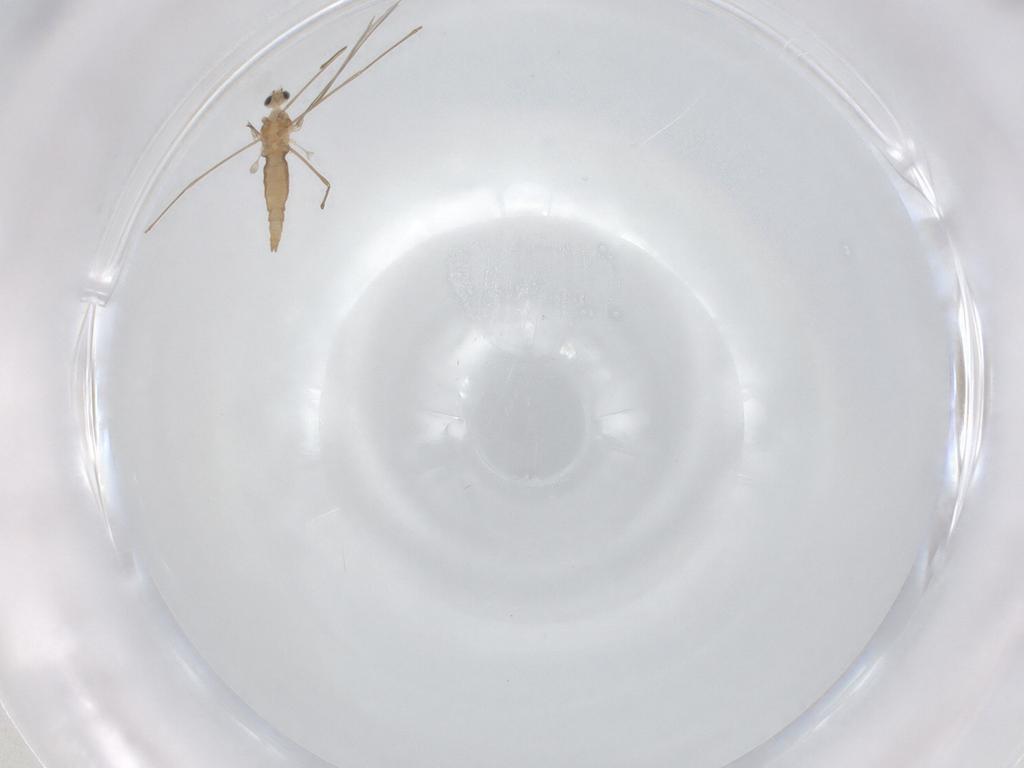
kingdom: Animalia
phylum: Arthropoda
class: Insecta
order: Diptera
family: Cecidomyiidae
